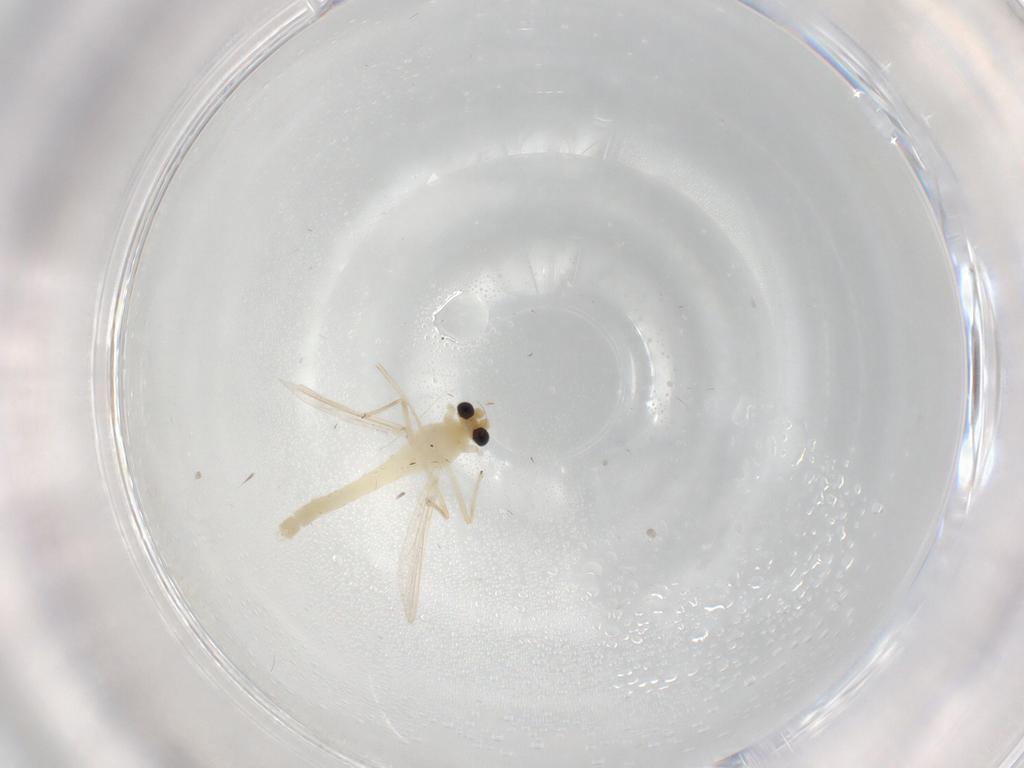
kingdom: Animalia
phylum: Arthropoda
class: Insecta
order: Diptera
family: Chironomidae
